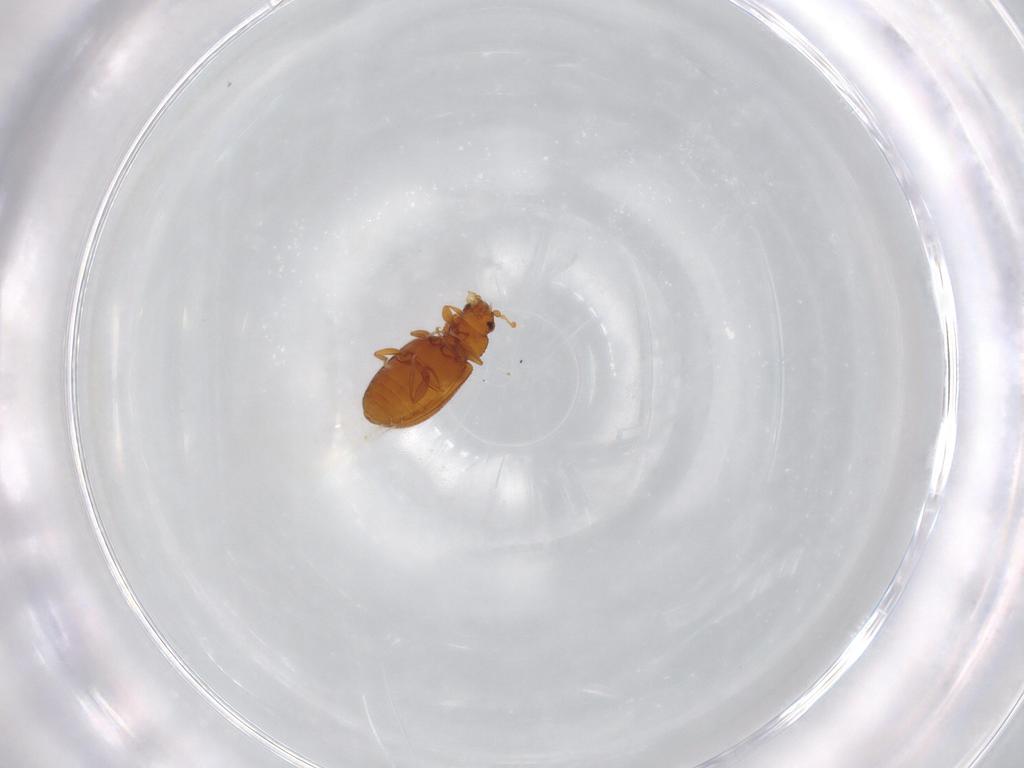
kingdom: Animalia
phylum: Arthropoda
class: Insecta
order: Coleoptera
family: Latridiidae
